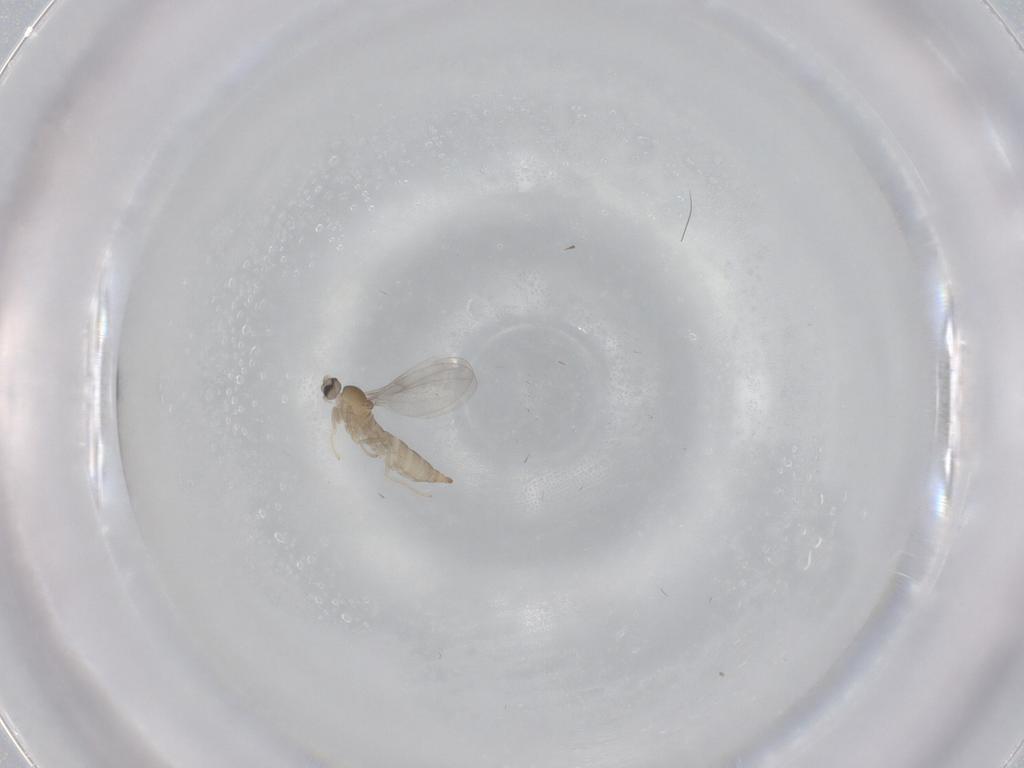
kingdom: Animalia
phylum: Arthropoda
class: Insecta
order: Diptera
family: Cecidomyiidae
